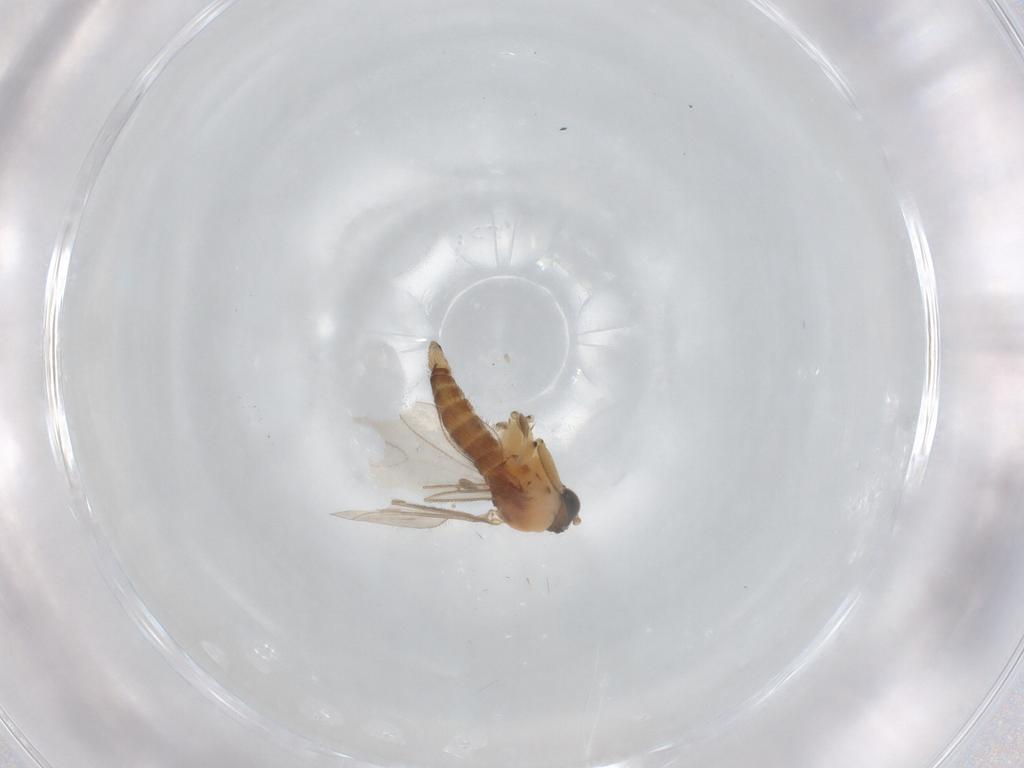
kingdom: Animalia
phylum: Arthropoda
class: Insecta
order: Diptera
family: Sciaridae
